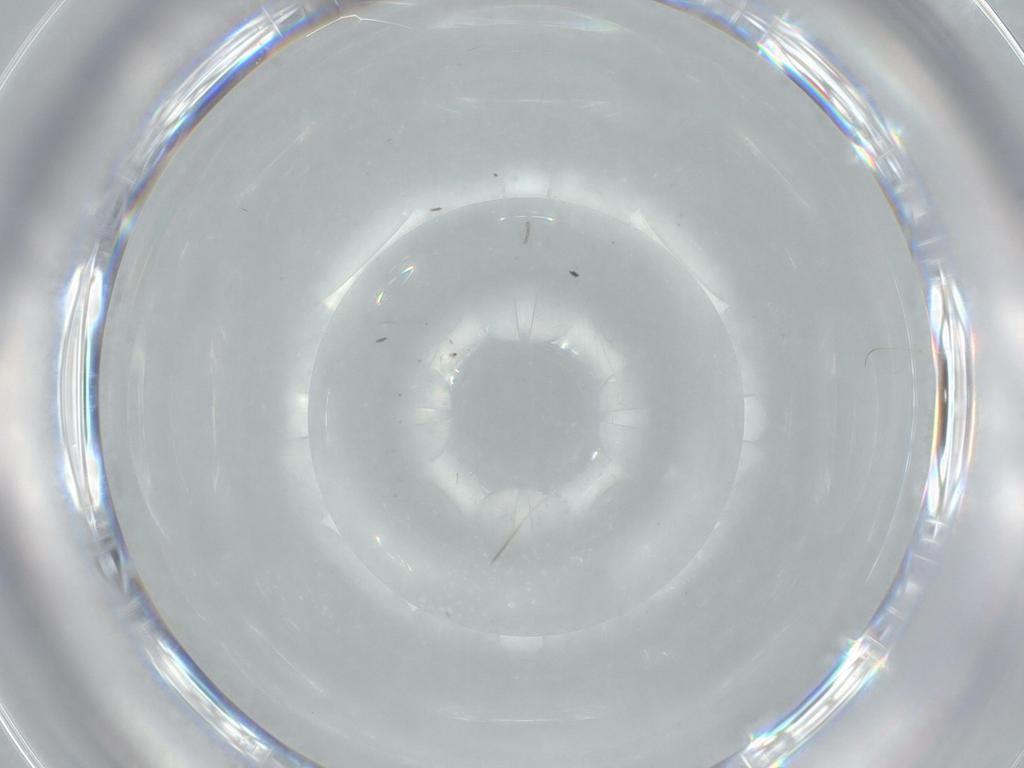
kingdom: Animalia
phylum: Arthropoda
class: Insecta
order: Diptera
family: Cecidomyiidae
